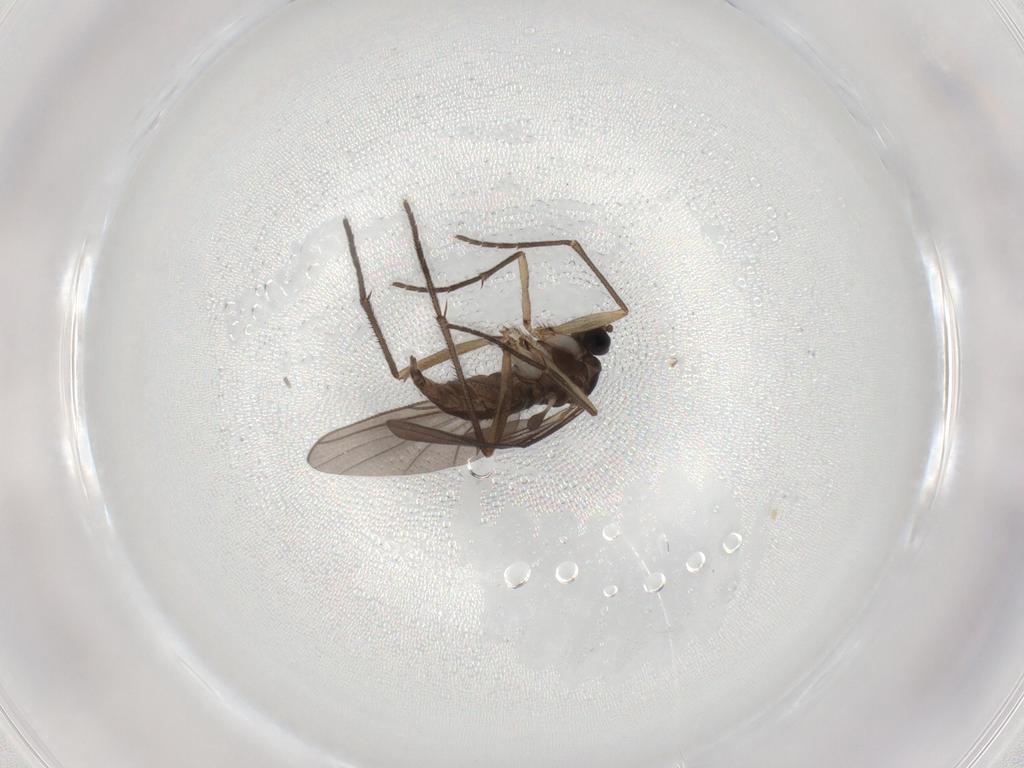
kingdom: Animalia
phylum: Arthropoda
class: Insecta
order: Diptera
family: Sciaridae
